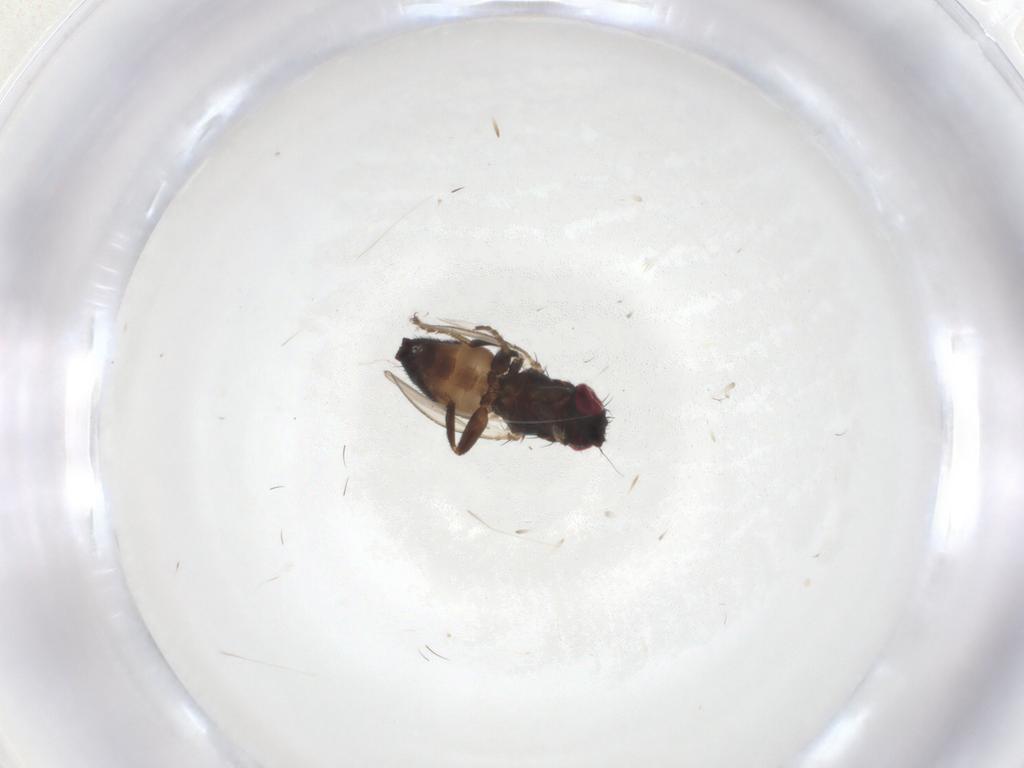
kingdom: Animalia
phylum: Arthropoda
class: Insecta
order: Diptera
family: Milichiidae
